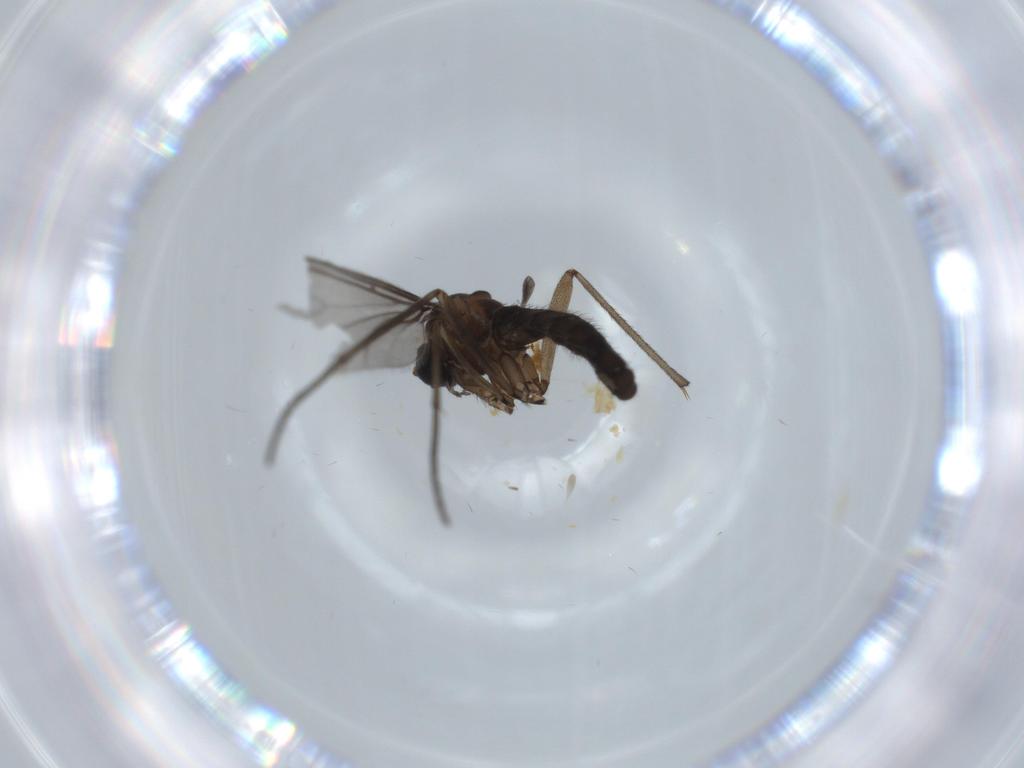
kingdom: Animalia
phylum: Arthropoda
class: Insecta
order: Diptera
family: Sciaridae
